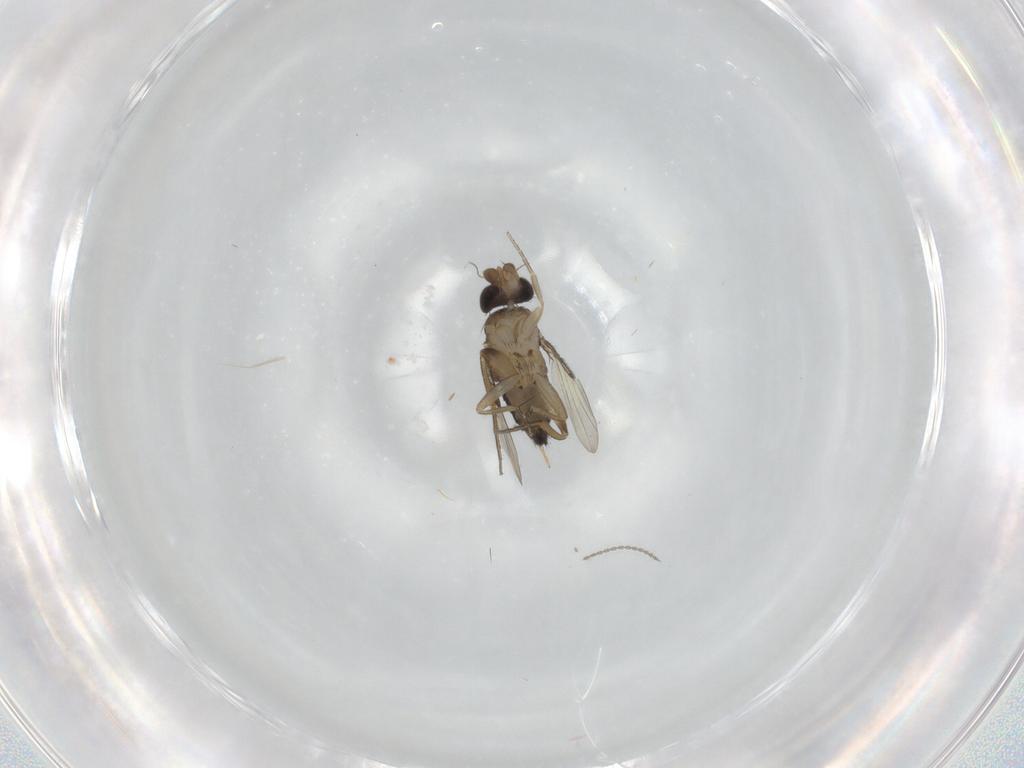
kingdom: Animalia
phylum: Arthropoda
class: Insecta
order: Diptera
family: Phoridae
